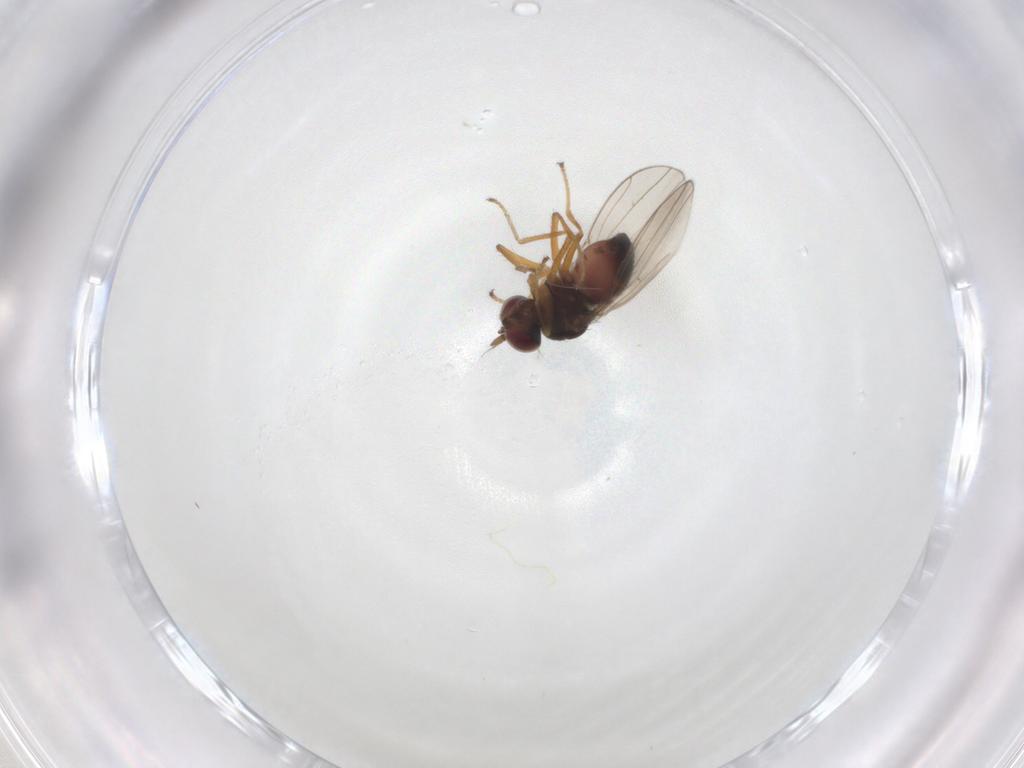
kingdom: Animalia
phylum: Arthropoda
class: Insecta
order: Diptera
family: Ephydridae
